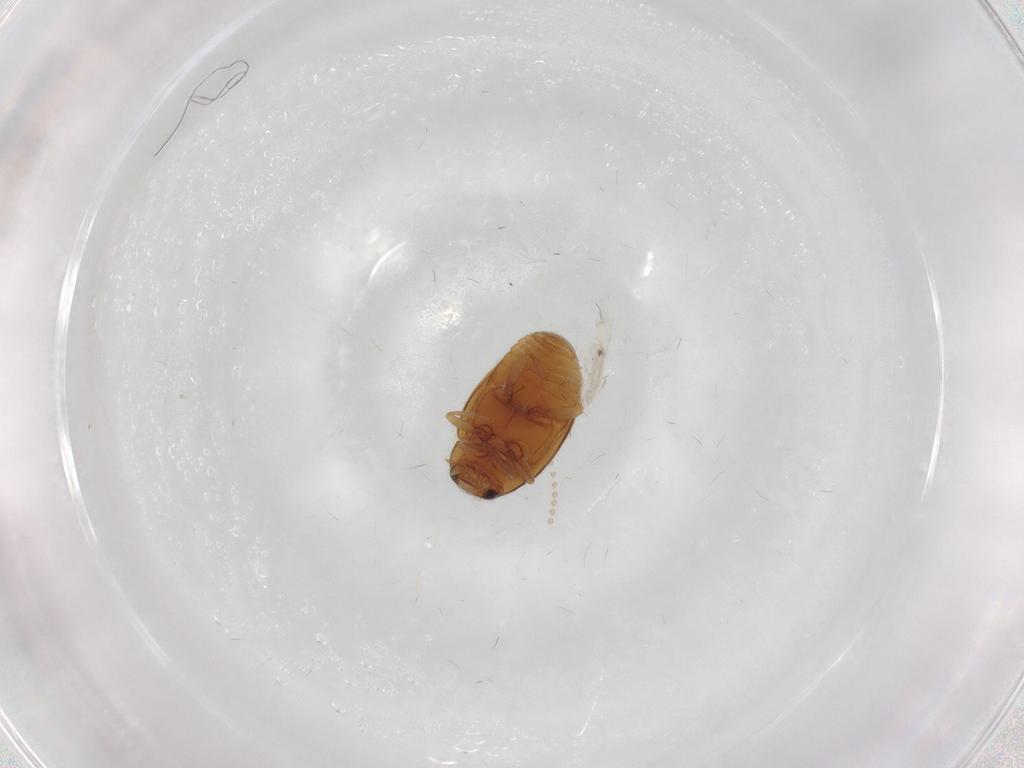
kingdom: Animalia
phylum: Arthropoda
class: Insecta
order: Coleoptera
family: Coccinellidae
